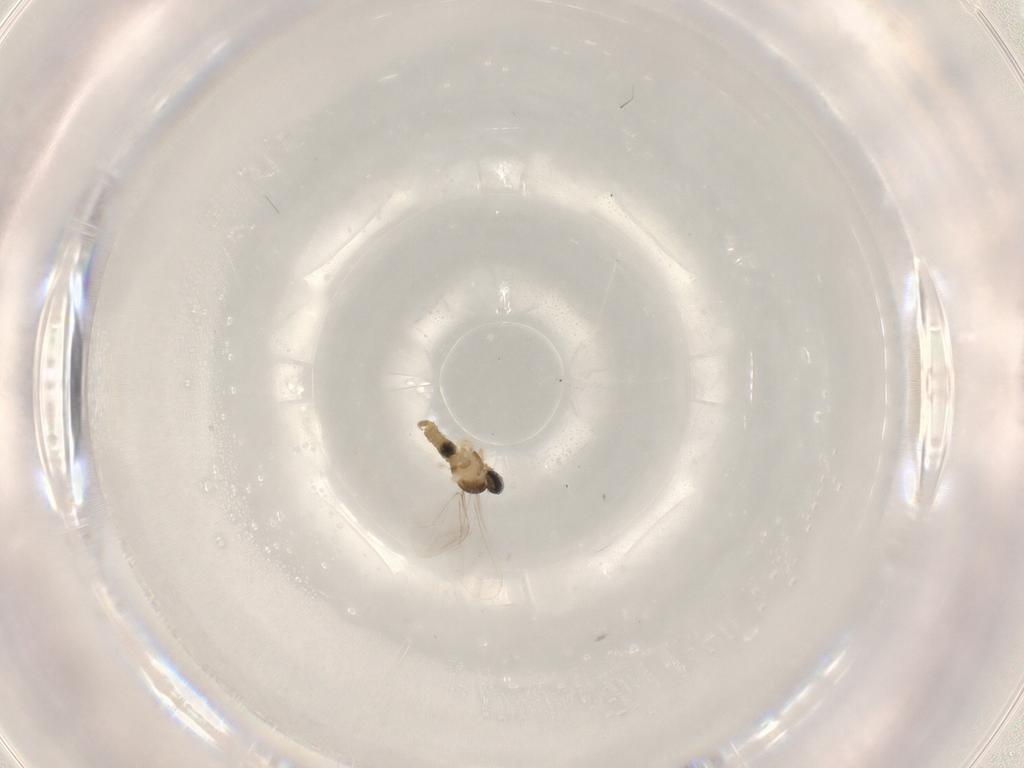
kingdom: Animalia
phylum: Arthropoda
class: Insecta
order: Diptera
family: Cecidomyiidae
